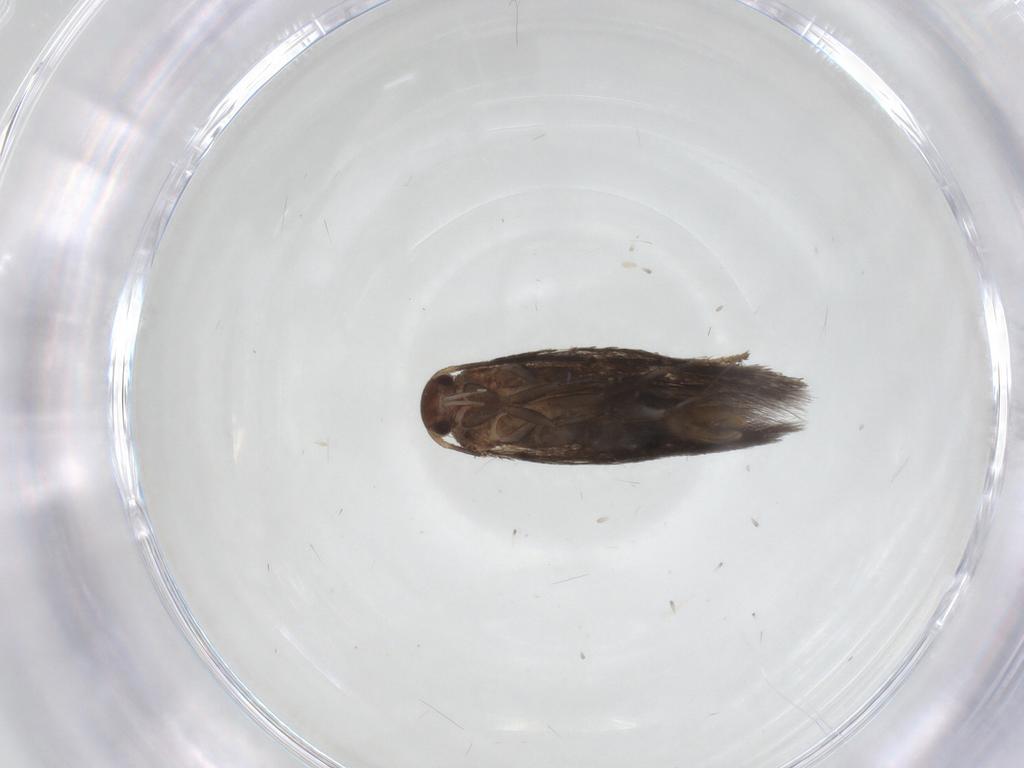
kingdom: Animalia
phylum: Arthropoda
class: Insecta
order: Lepidoptera
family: Elachistidae
